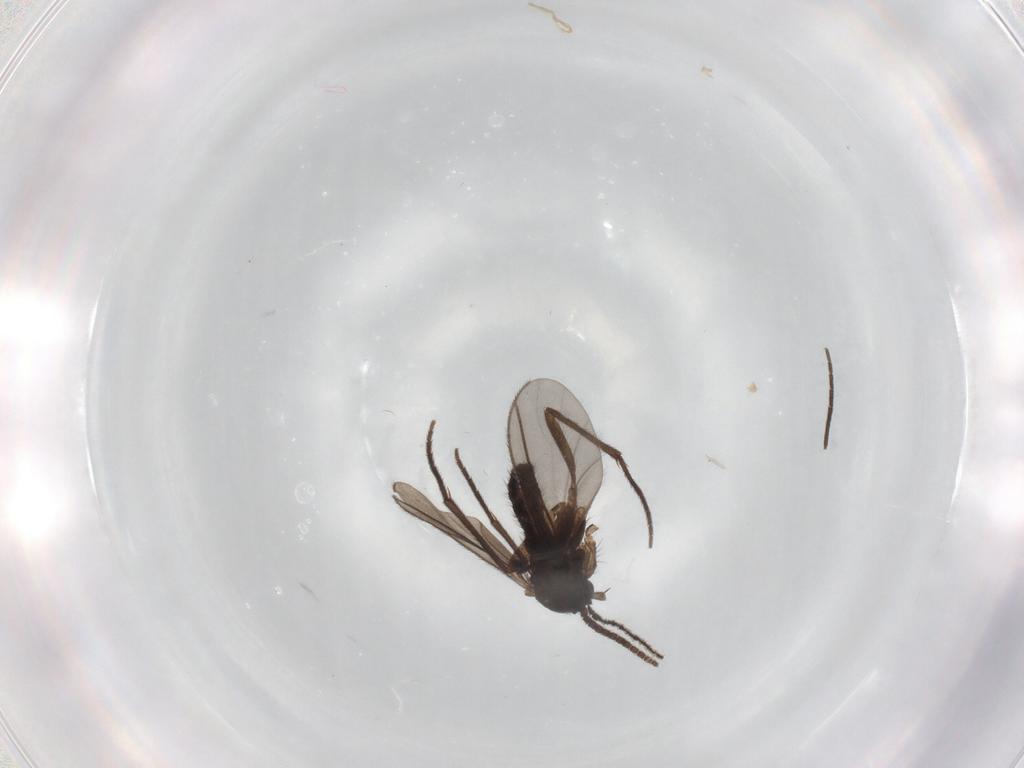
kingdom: Animalia
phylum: Arthropoda
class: Insecta
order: Diptera
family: Sciaridae
